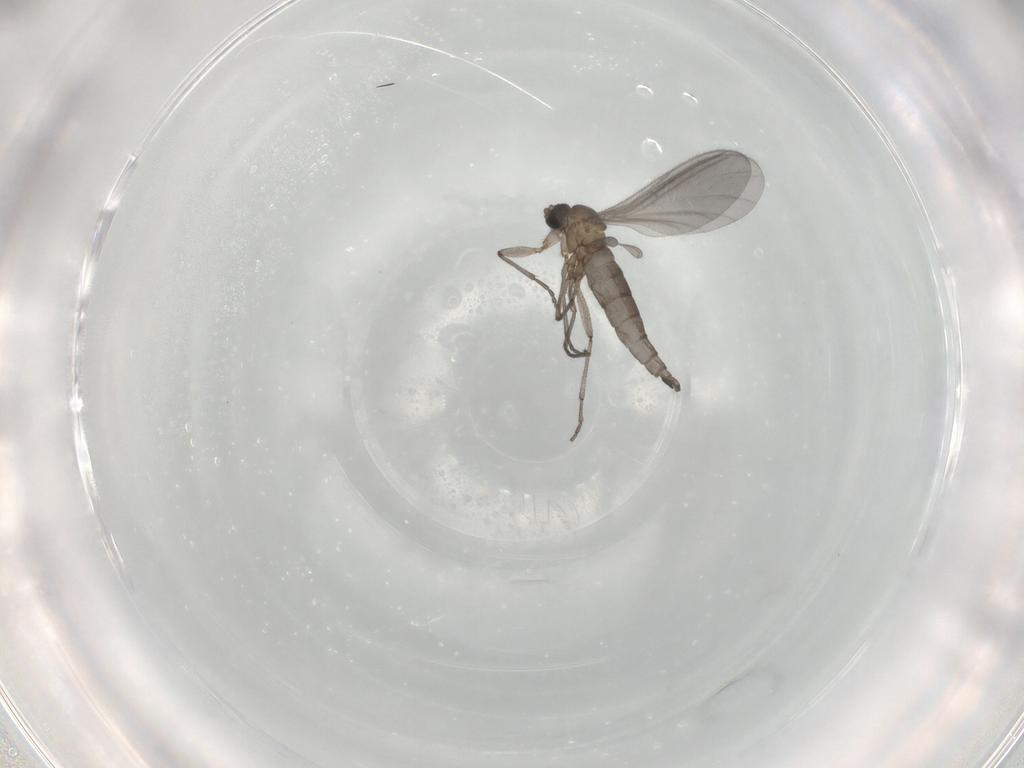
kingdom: Animalia
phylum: Arthropoda
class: Insecta
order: Diptera
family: Sciaridae
